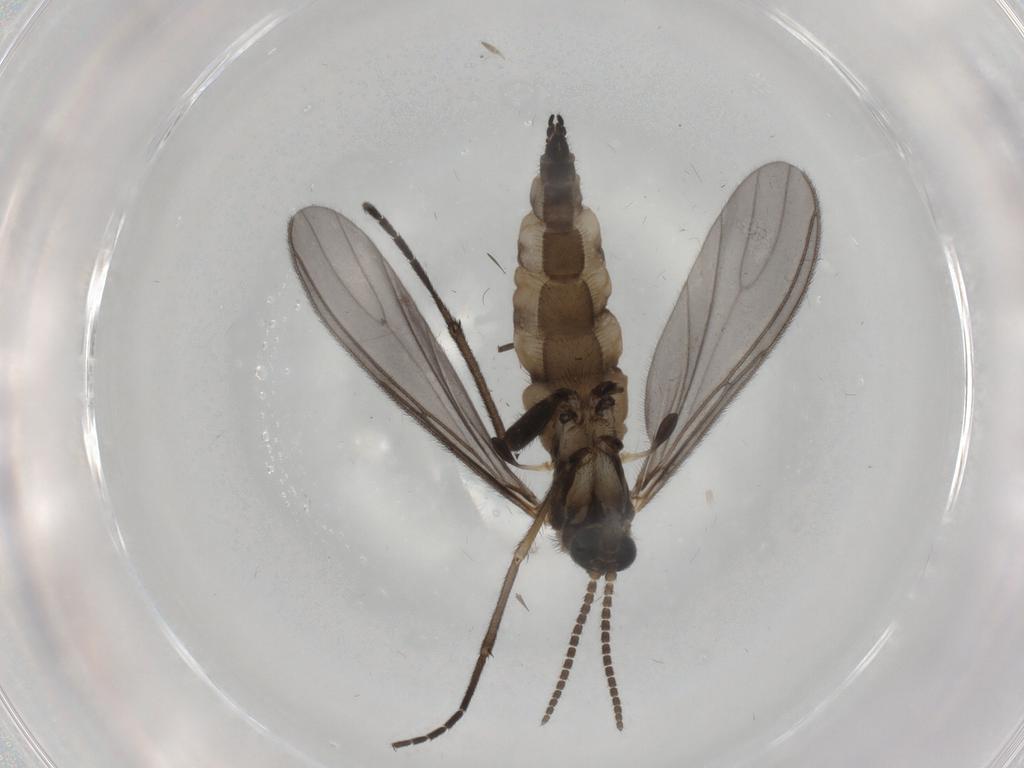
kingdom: Animalia
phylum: Arthropoda
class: Insecta
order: Diptera
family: Sciaridae
